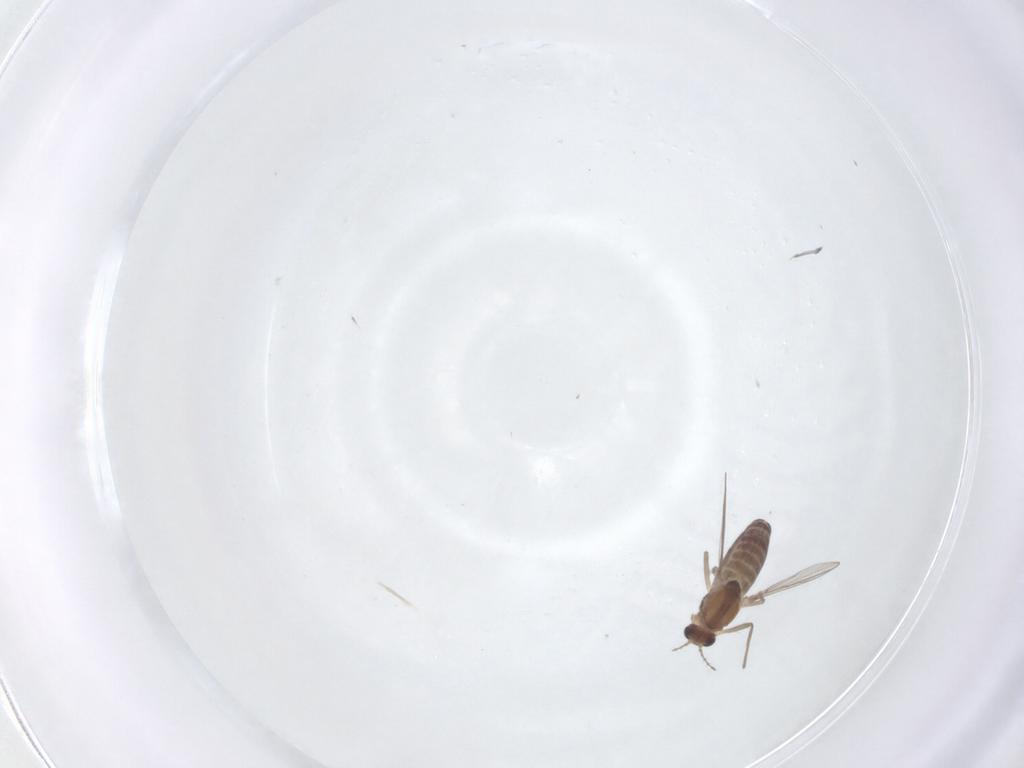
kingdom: Animalia
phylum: Arthropoda
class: Insecta
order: Diptera
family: Chironomidae
